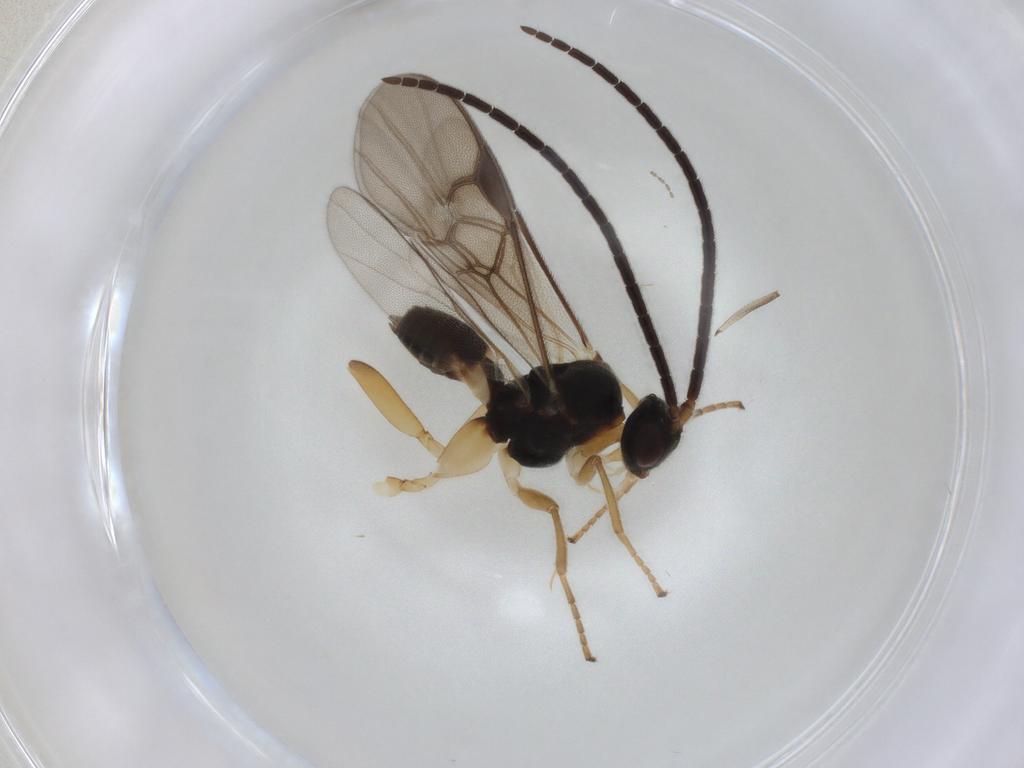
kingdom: Animalia
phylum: Arthropoda
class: Insecta
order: Hymenoptera
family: Braconidae
